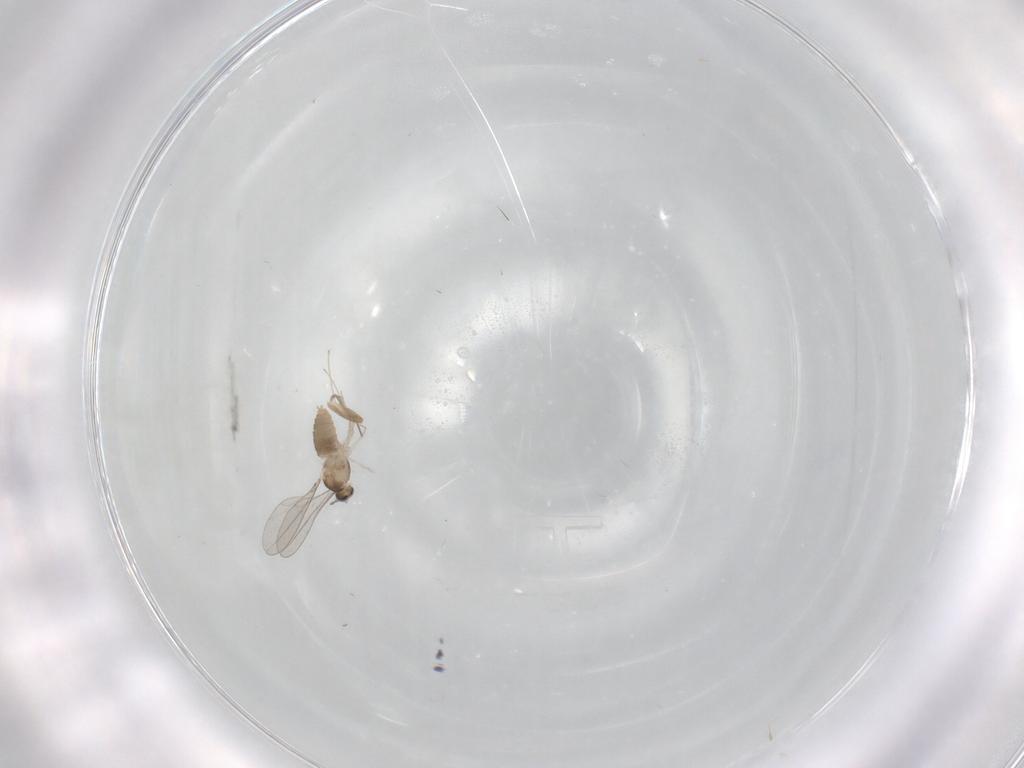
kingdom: Animalia
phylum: Arthropoda
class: Insecta
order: Diptera
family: Cecidomyiidae
